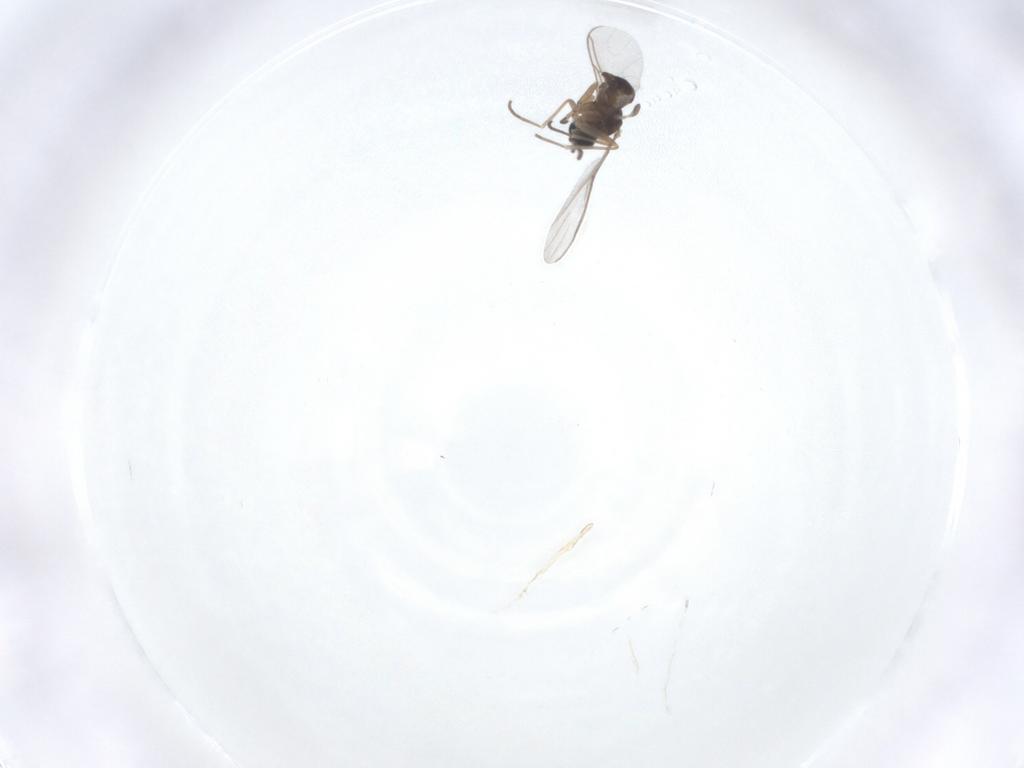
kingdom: Animalia
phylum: Arthropoda
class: Insecta
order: Diptera
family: Sciaridae
